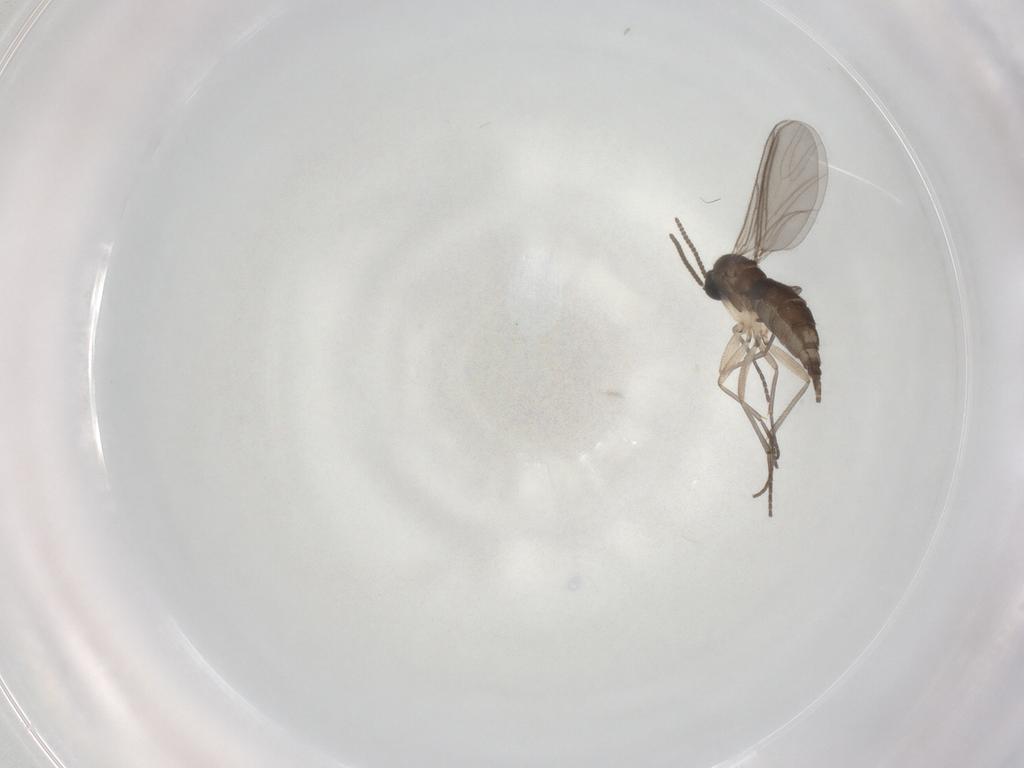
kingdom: Animalia
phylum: Arthropoda
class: Insecta
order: Diptera
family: Sciaridae
